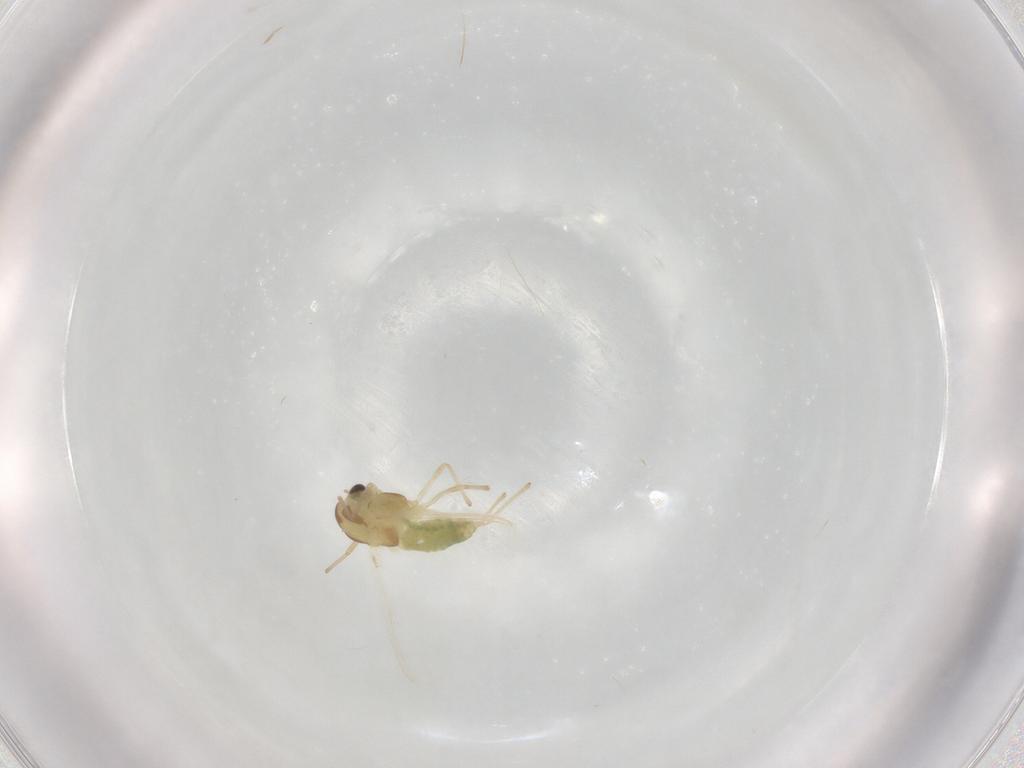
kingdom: Animalia
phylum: Arthropoda
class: Insecta
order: Diptera
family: Chironomidae
